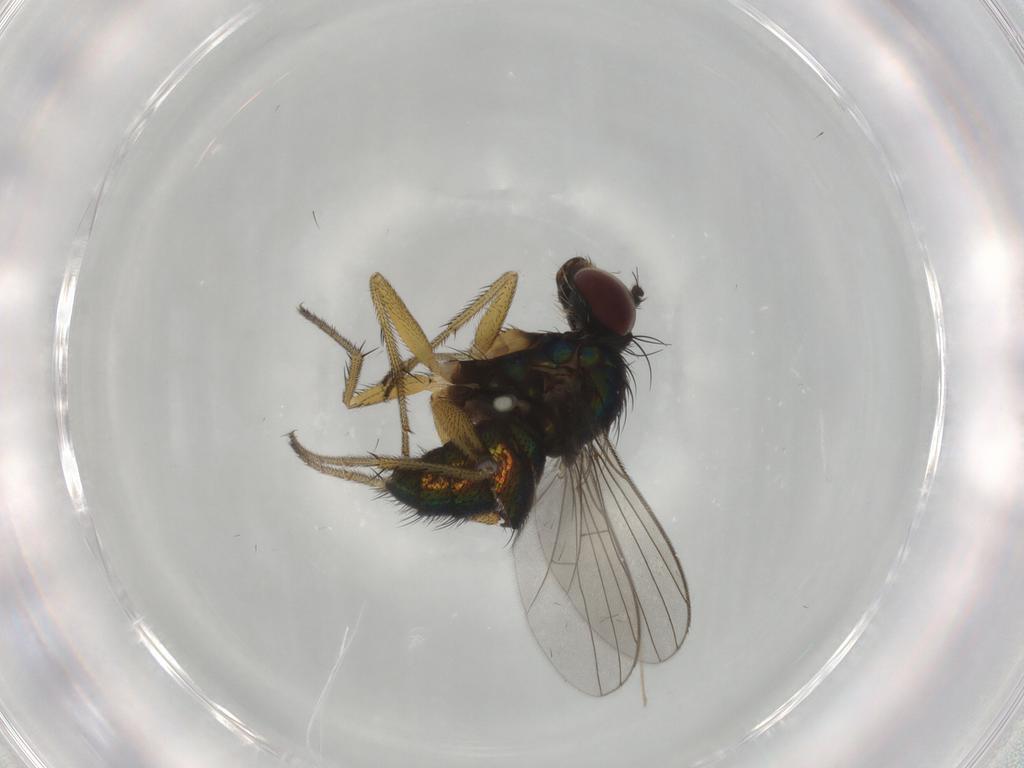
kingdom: Animalia
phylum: Arthropoda
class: Insecta
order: Diptera
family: Dolichopodidae
